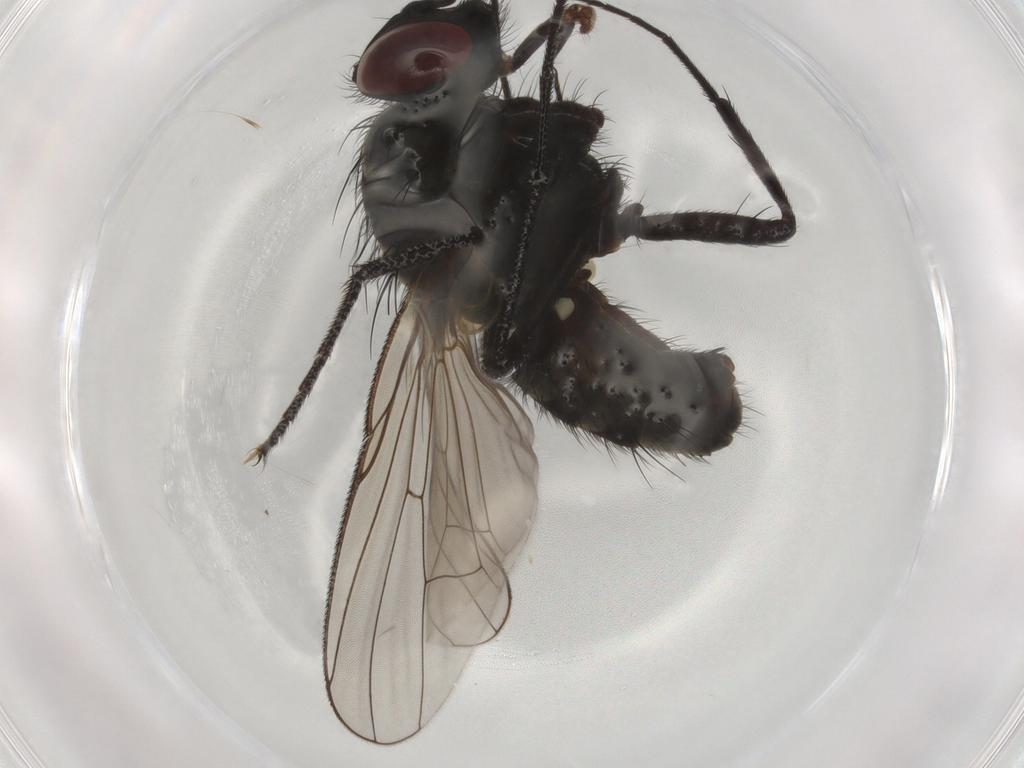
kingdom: Animalia
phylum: Arthropoda
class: Insecta
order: Diptera
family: Muscidae
